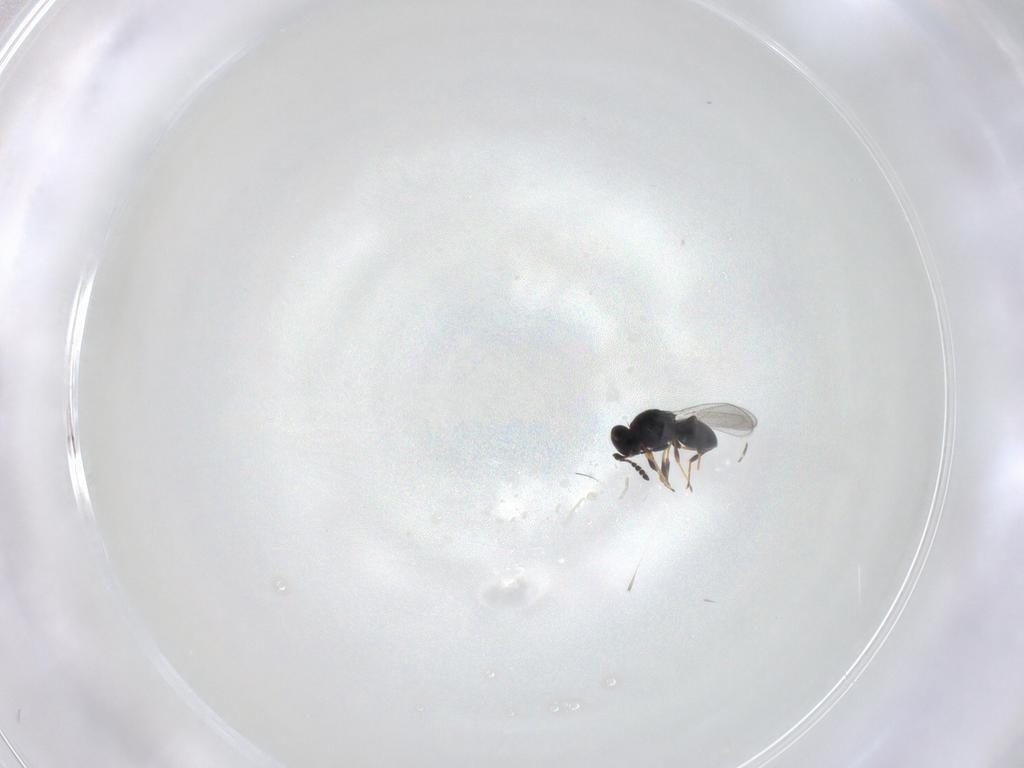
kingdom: Animalia
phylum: Arthropoda
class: Insecta
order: Hymenoptera
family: Platygastridae
